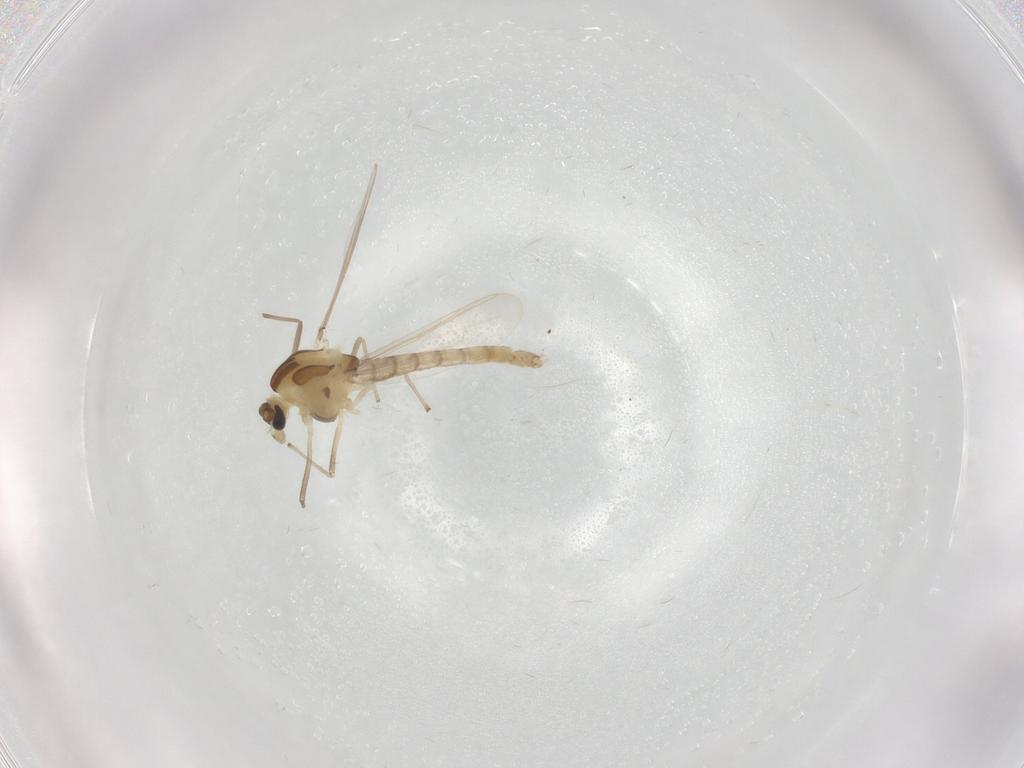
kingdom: Animalia
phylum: Arthropoda
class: Insecta
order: Diptera
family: Chironomidae
